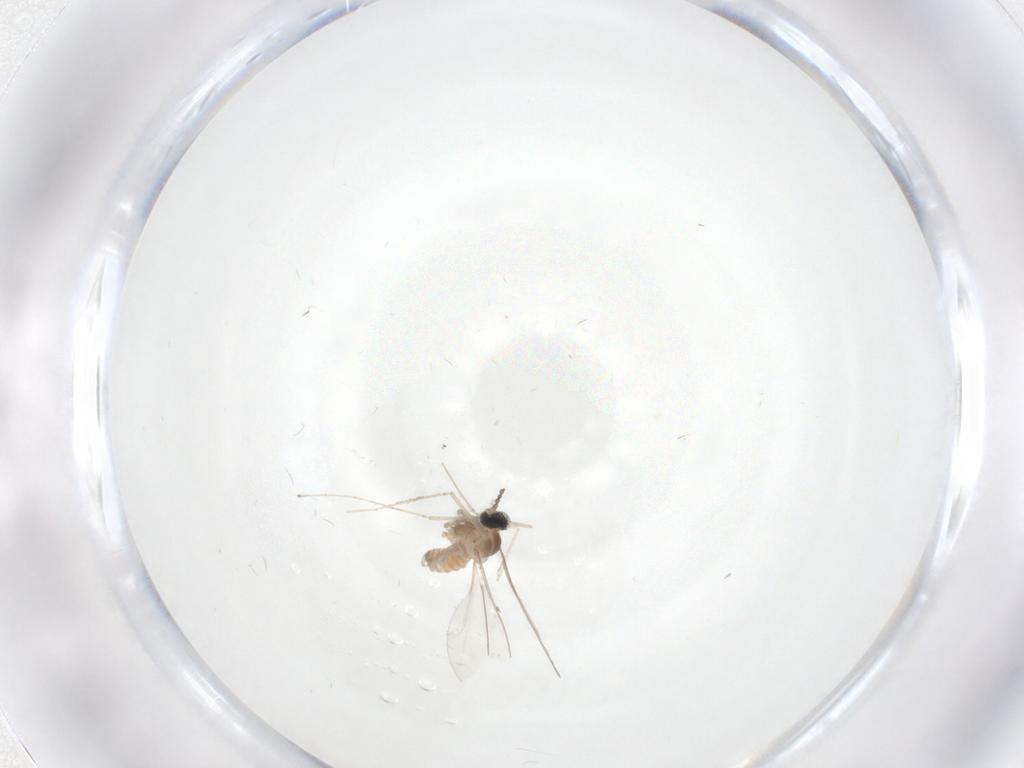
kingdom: Animalia
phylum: Arthropoda
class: Insecta
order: Diptera
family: Cecidomyiidae
